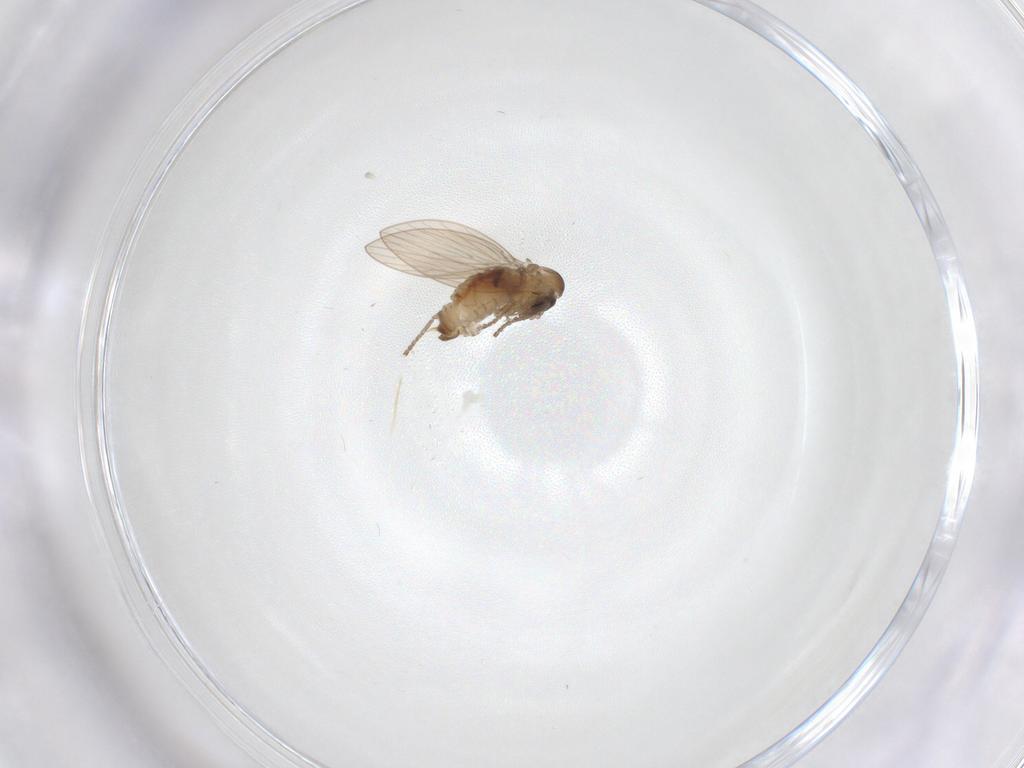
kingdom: Animalia
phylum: Arthropoda
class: Insecta
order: Diptera
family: Psychodidae
